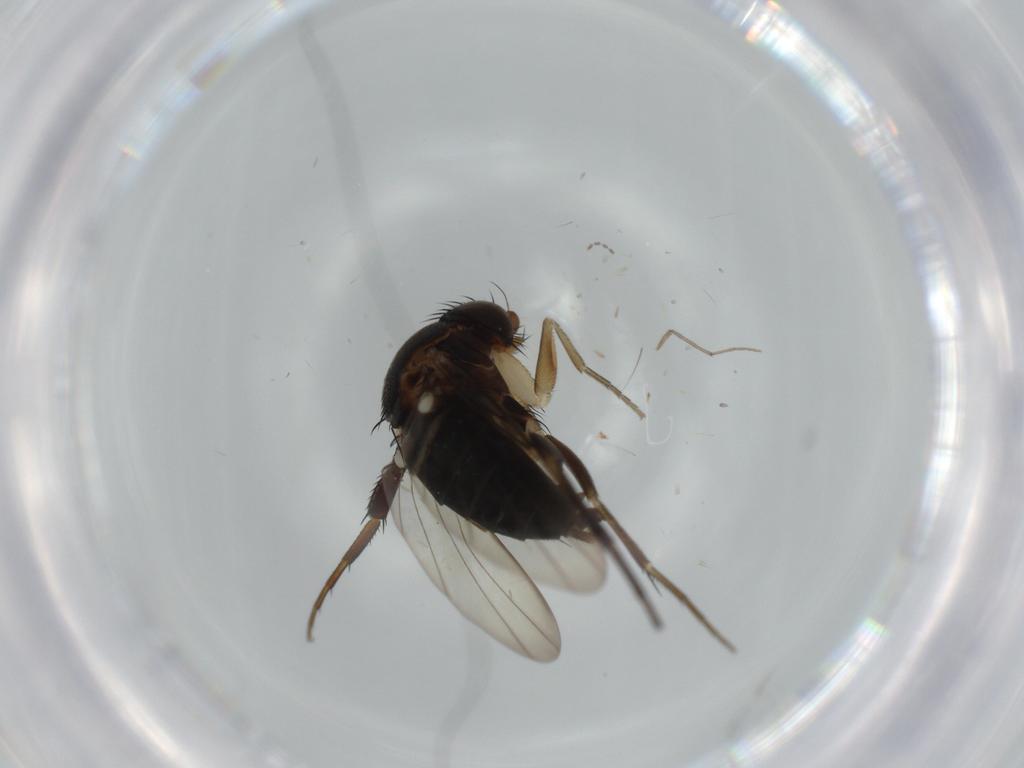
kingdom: Animalia
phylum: Arthropoda
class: Insecta
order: Diptera
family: Phoridae
